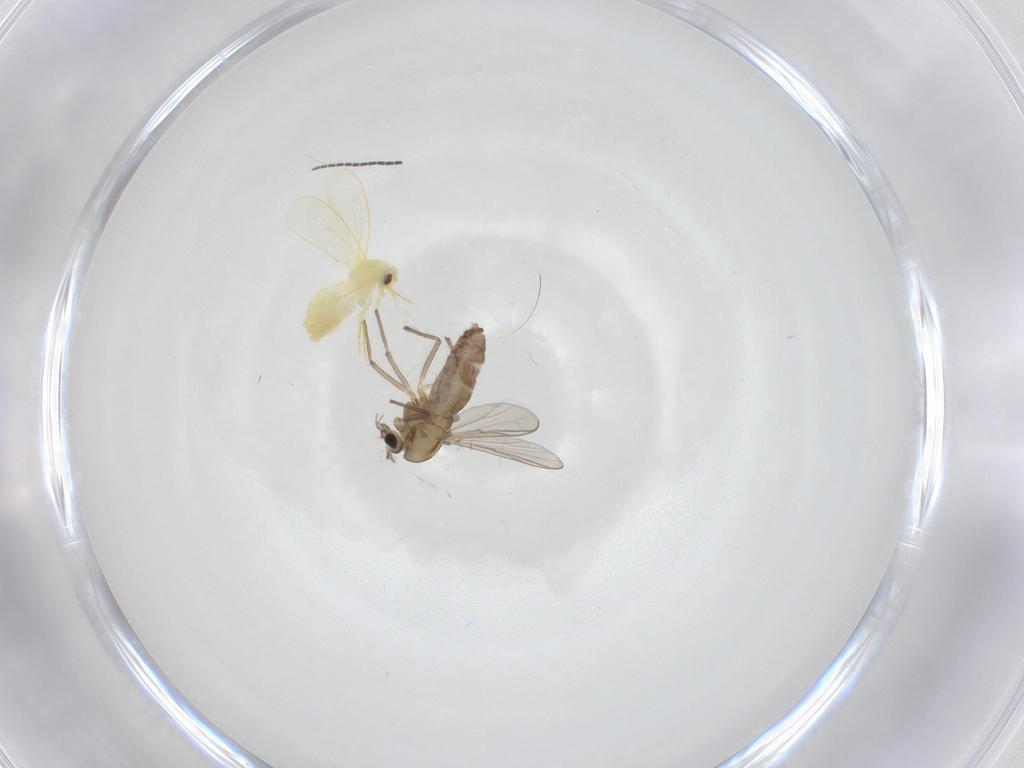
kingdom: Animalia
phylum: Arthropoda
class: Insecta
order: Diptera
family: Chironomidae
